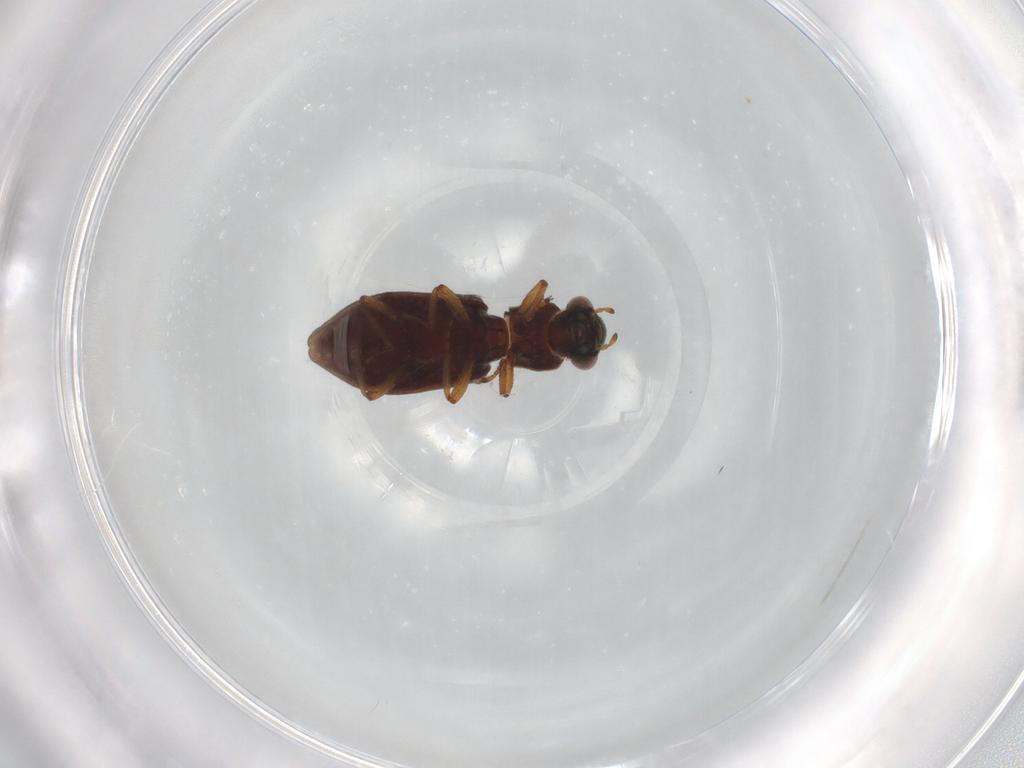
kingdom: Animalia
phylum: Arthropoda
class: Insecta
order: Coleoptera
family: Hydrophilidae
